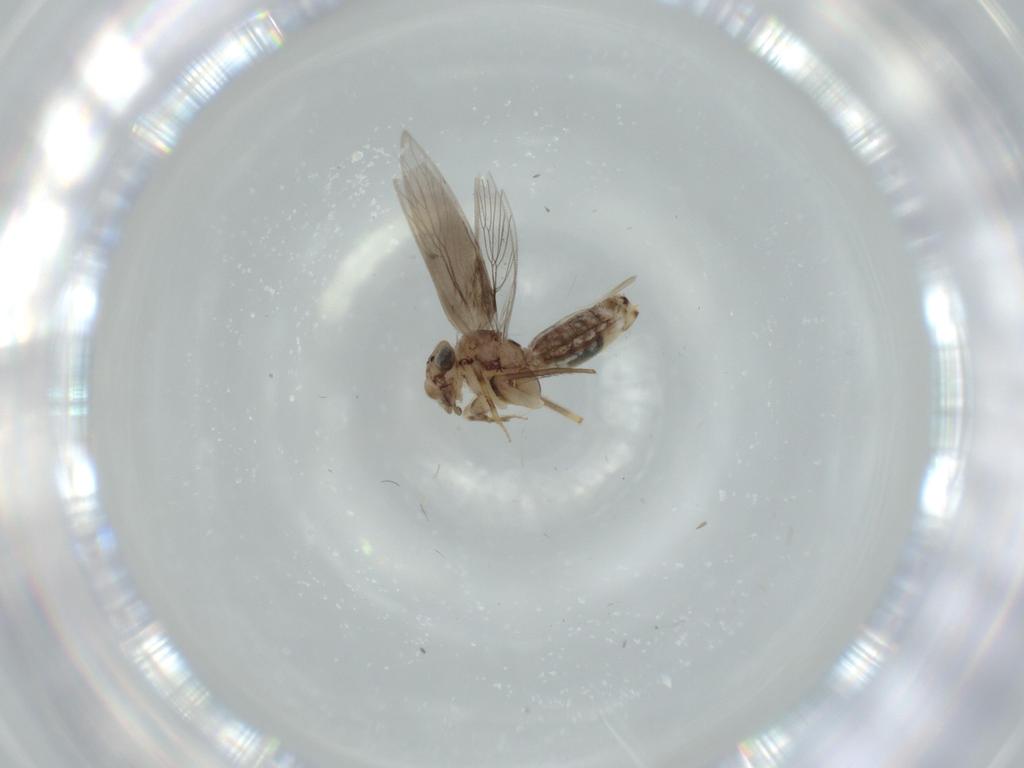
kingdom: Animalia
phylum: Arthropoda
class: Insecta
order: Psocodea
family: Lepidopsocidae
